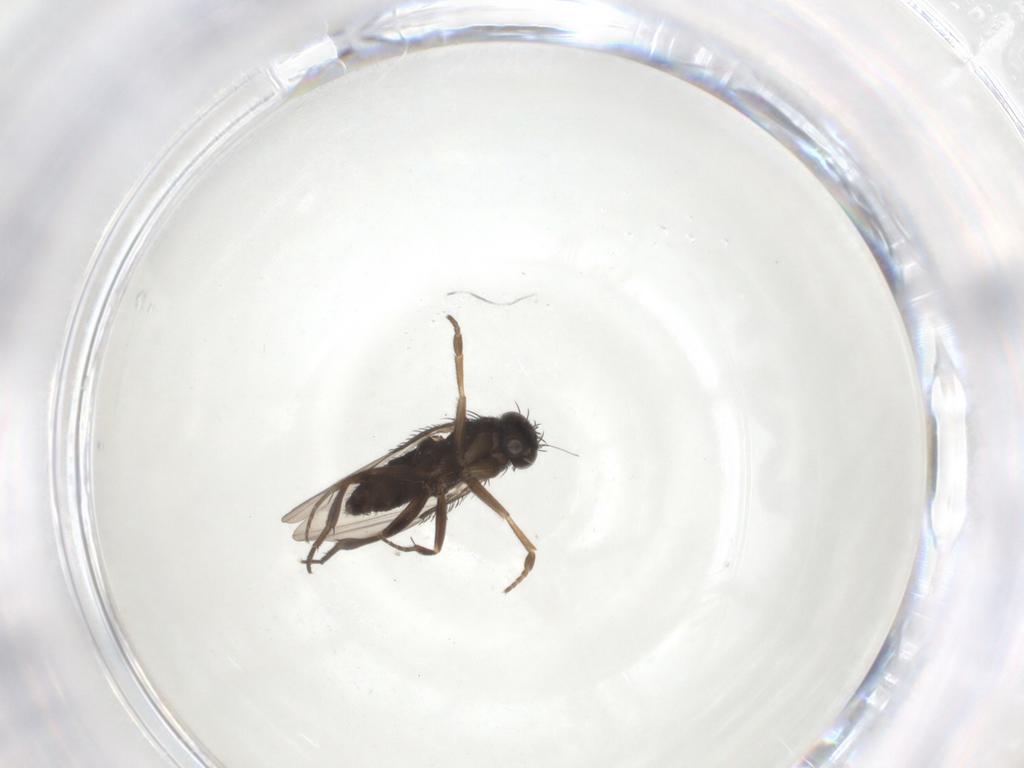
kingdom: Animalia
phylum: Arthropoda
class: Insecta
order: Diptera
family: Phoridae
